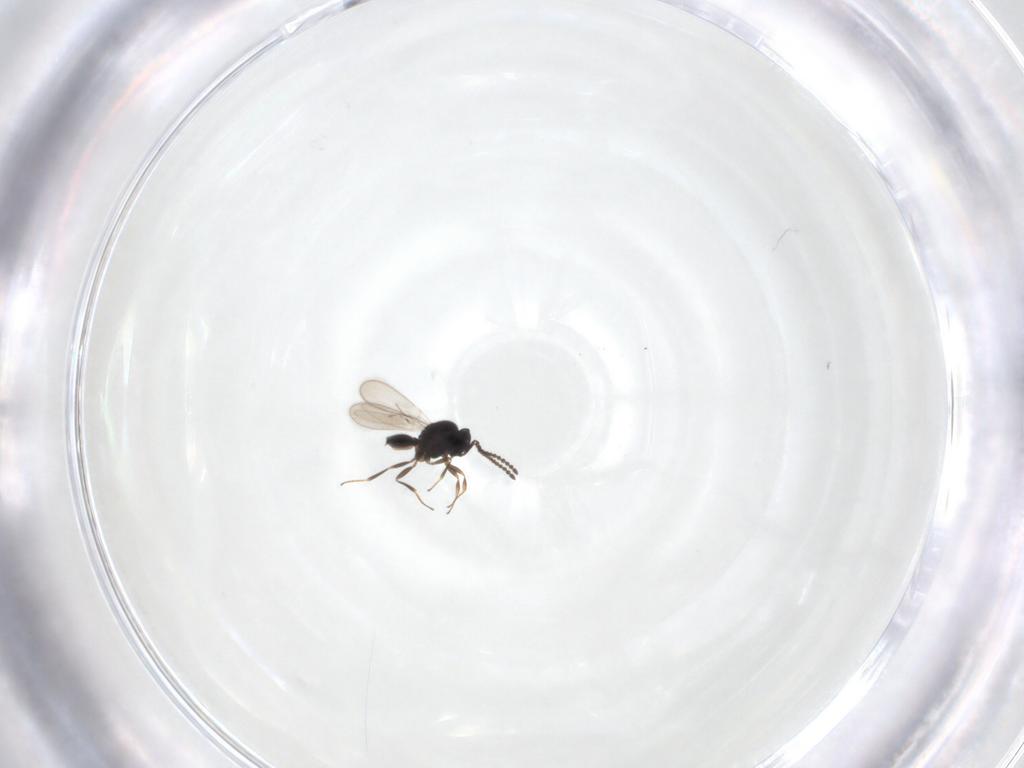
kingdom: Animalia
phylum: Arthropoda
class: Insecta
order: Hymenoptera
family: Scelionidae
